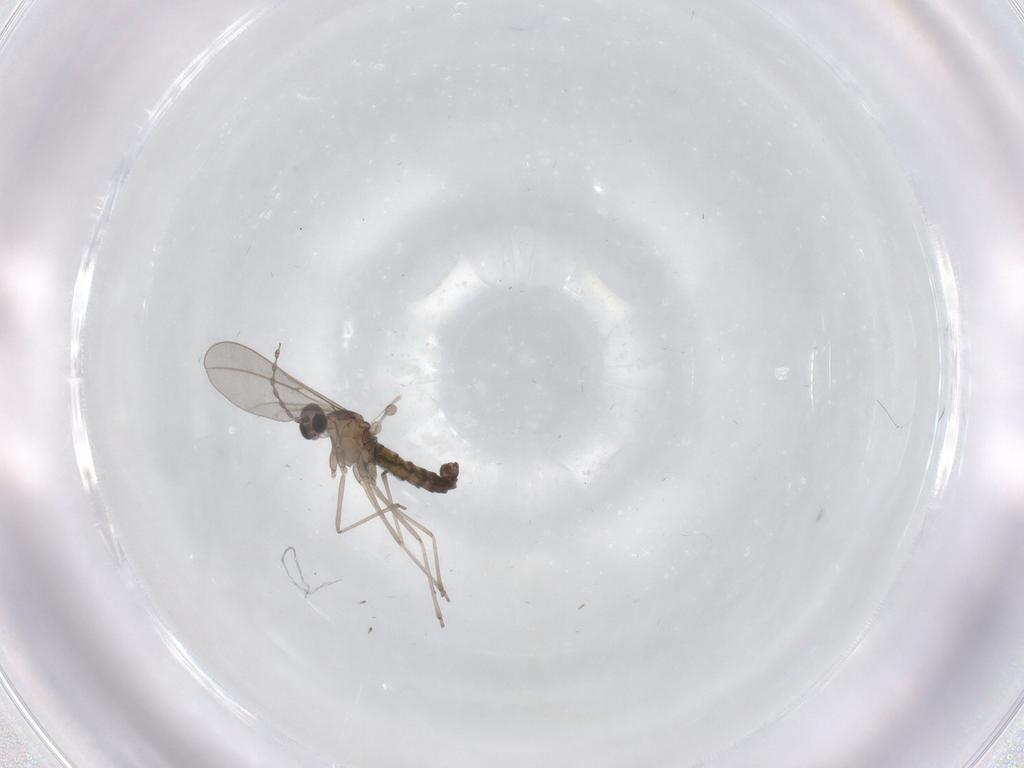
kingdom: Animalia
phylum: Arthropoda
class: Insecta
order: Diptera
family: Cecidomyiidae
